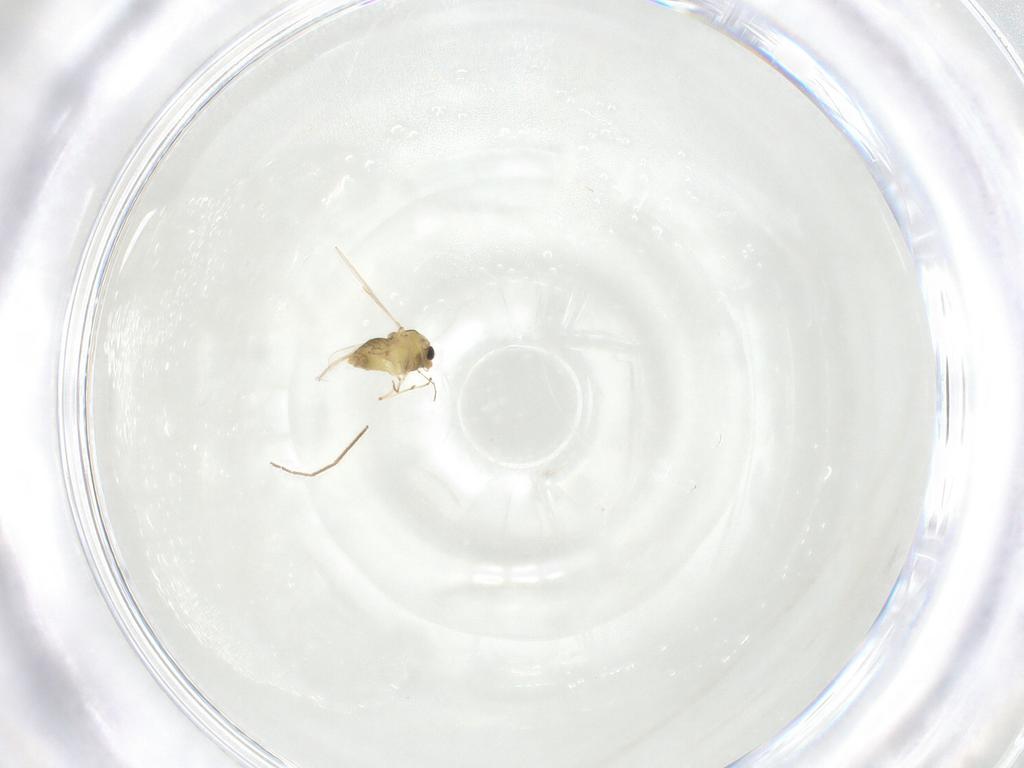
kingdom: Animalia
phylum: Arthropoda
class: Insecta
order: Diptera
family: Chironomidae
